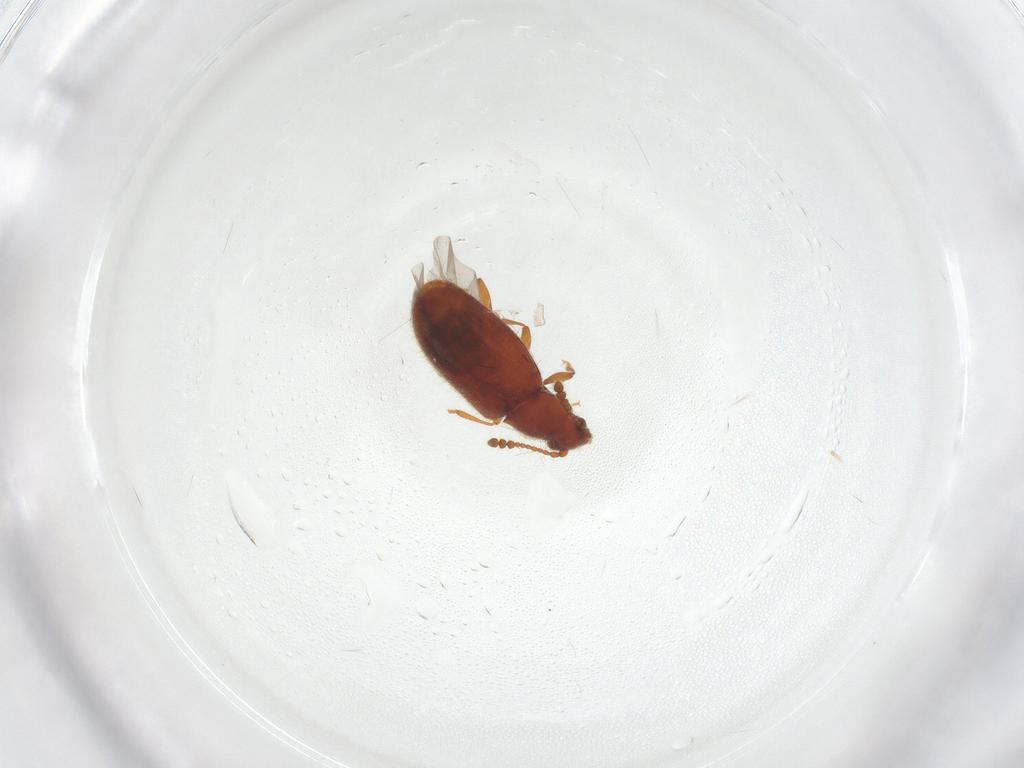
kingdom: Animalia
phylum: Arthropoda
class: Insecta
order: Coleoptera
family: Cryptophagidae
